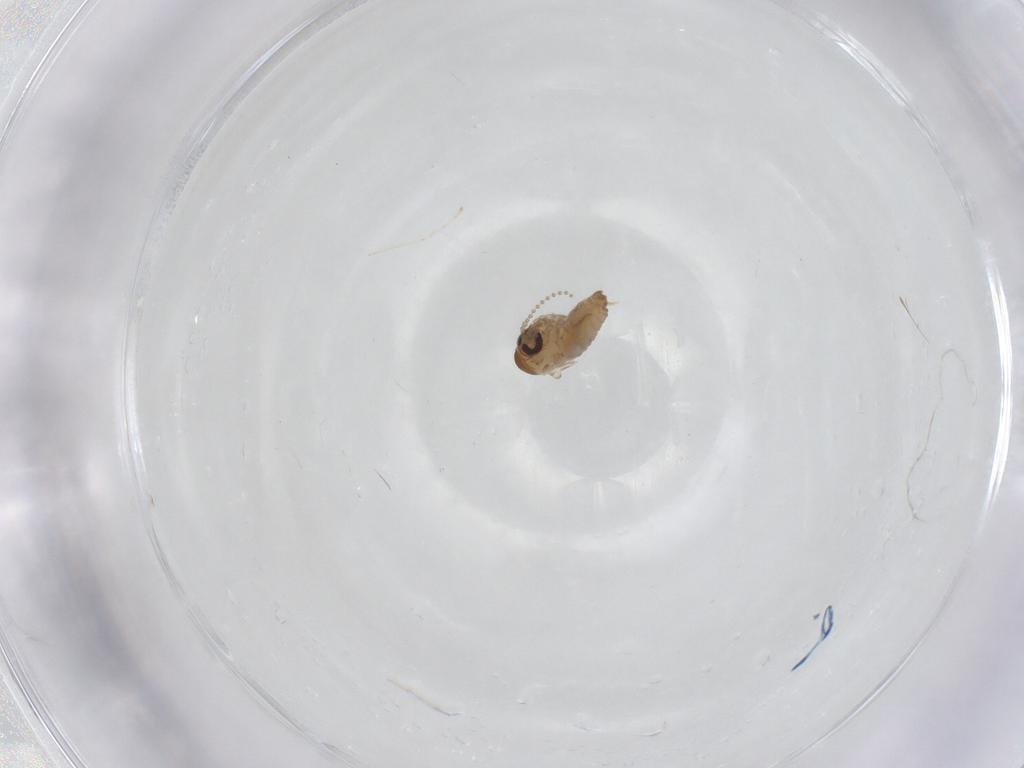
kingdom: Animalia
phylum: Arthropoda
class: Insecta
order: Diptera
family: Psychodidae
